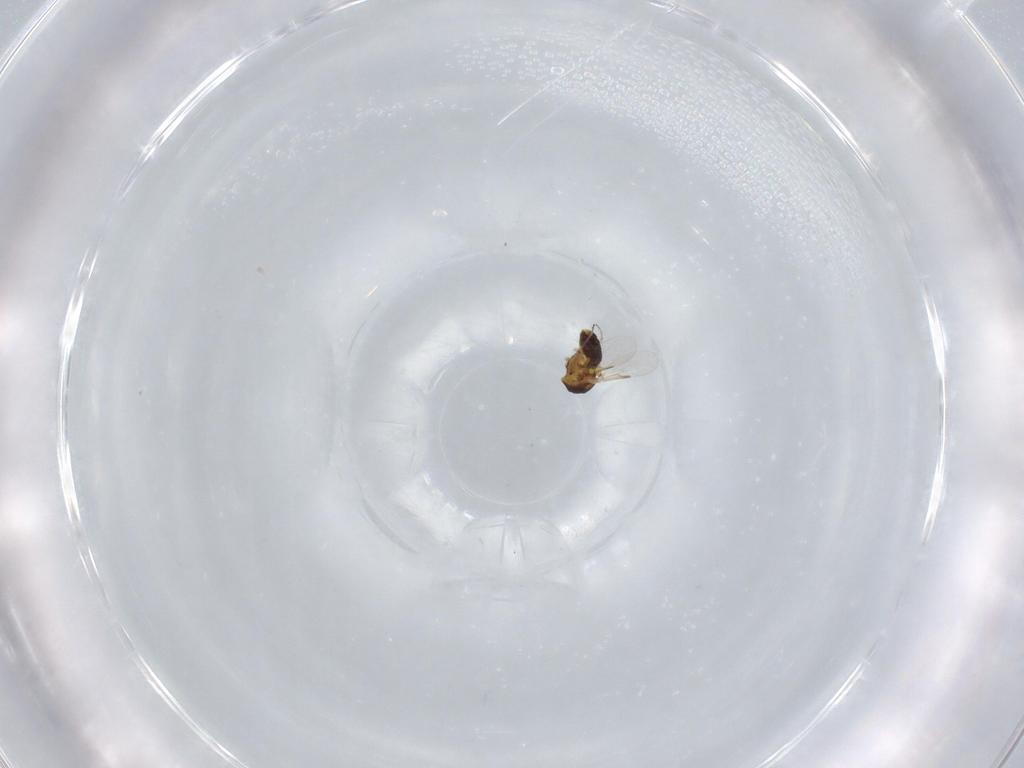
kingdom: Animalia
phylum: Arthropoda
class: Insecta
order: Diptera
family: Ceratopogonidae
